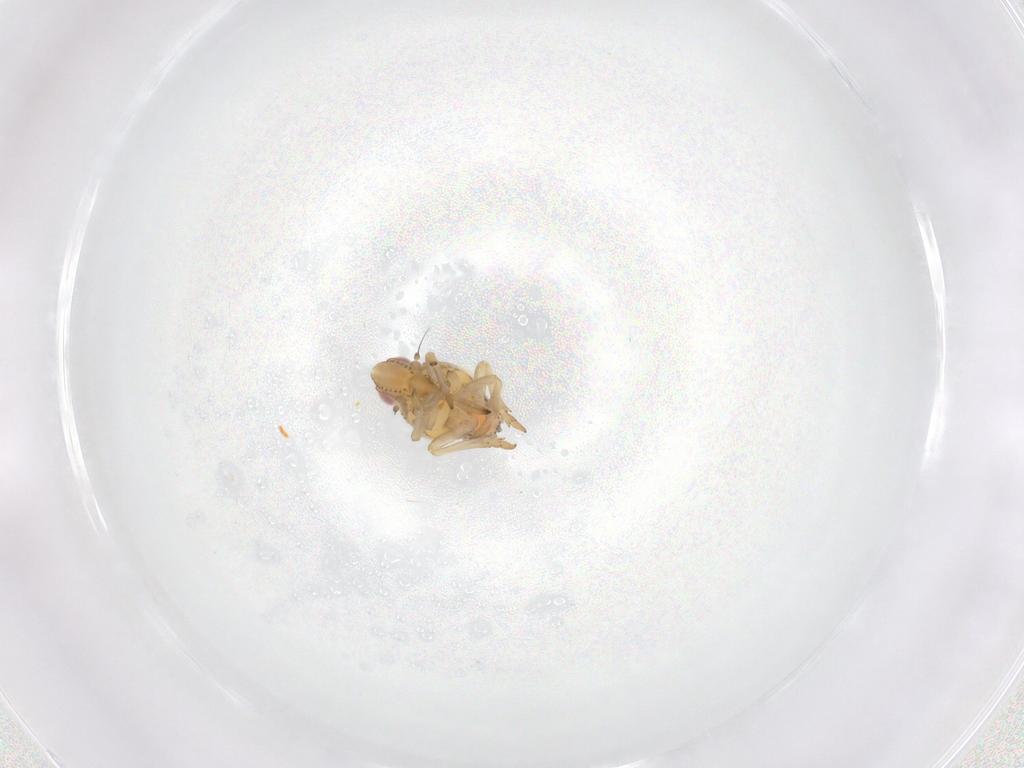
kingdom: Animalia
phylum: Arthropoda
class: Insecta
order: Hemiptera
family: Tropiduchidae
